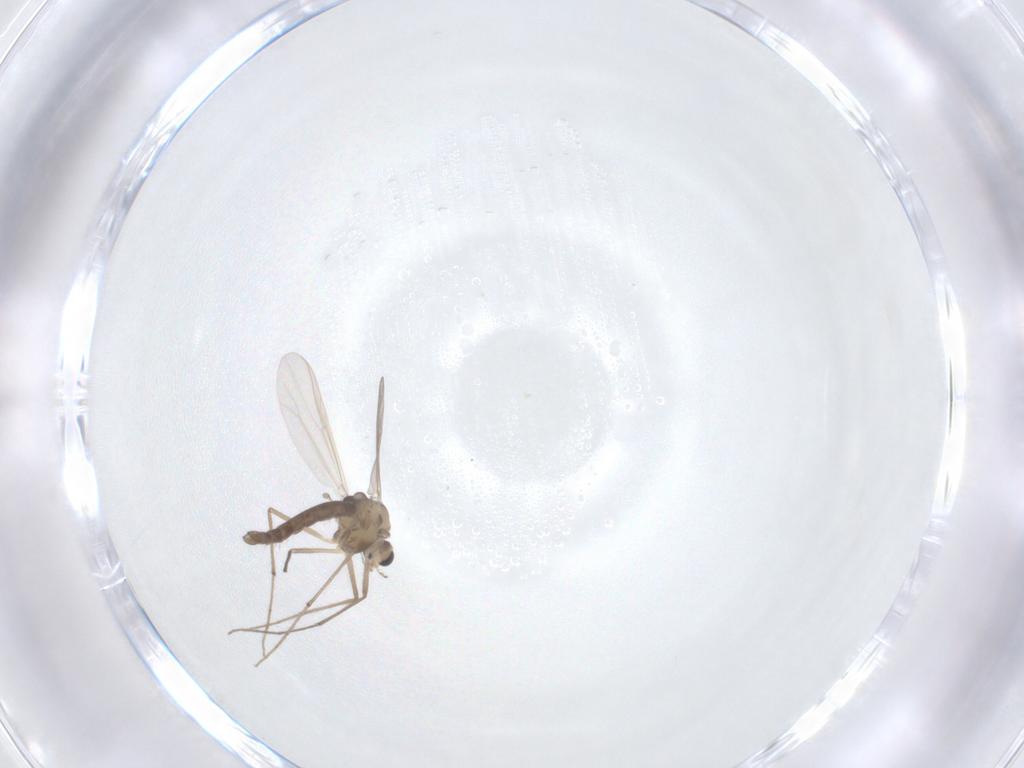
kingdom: Animalia
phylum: Arthropoda
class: Insecta
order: Diptera
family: Chironomidae
